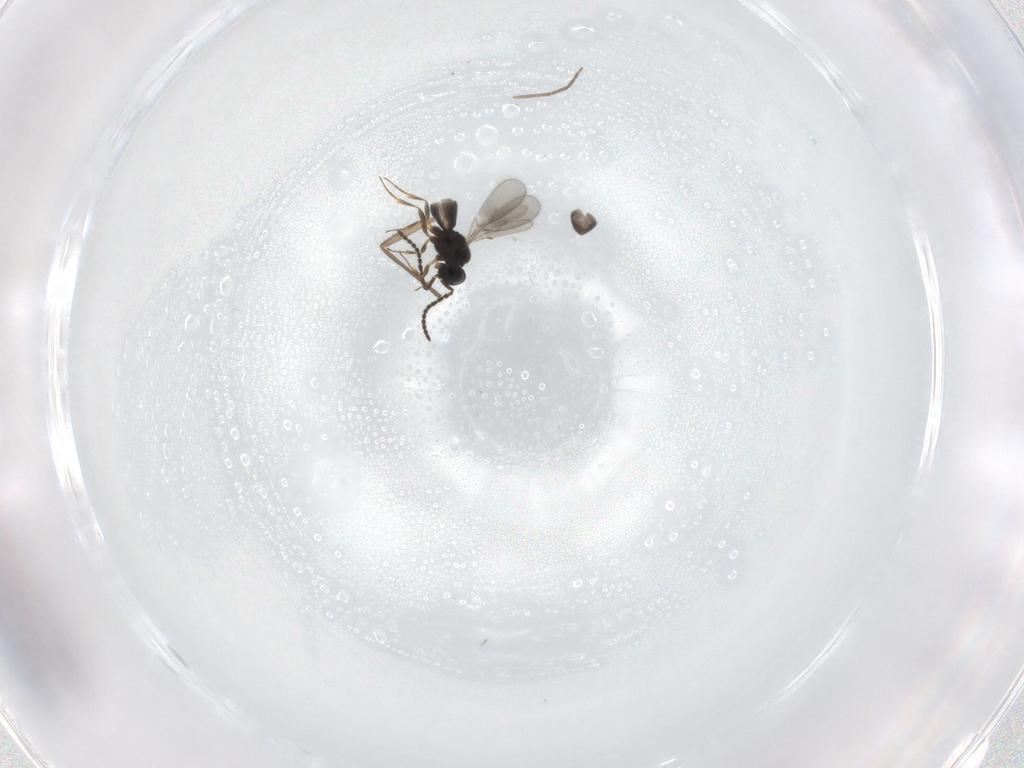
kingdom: Animalia
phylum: Arthropoda
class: Insecta
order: Hymenoptera
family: Scelionidae
